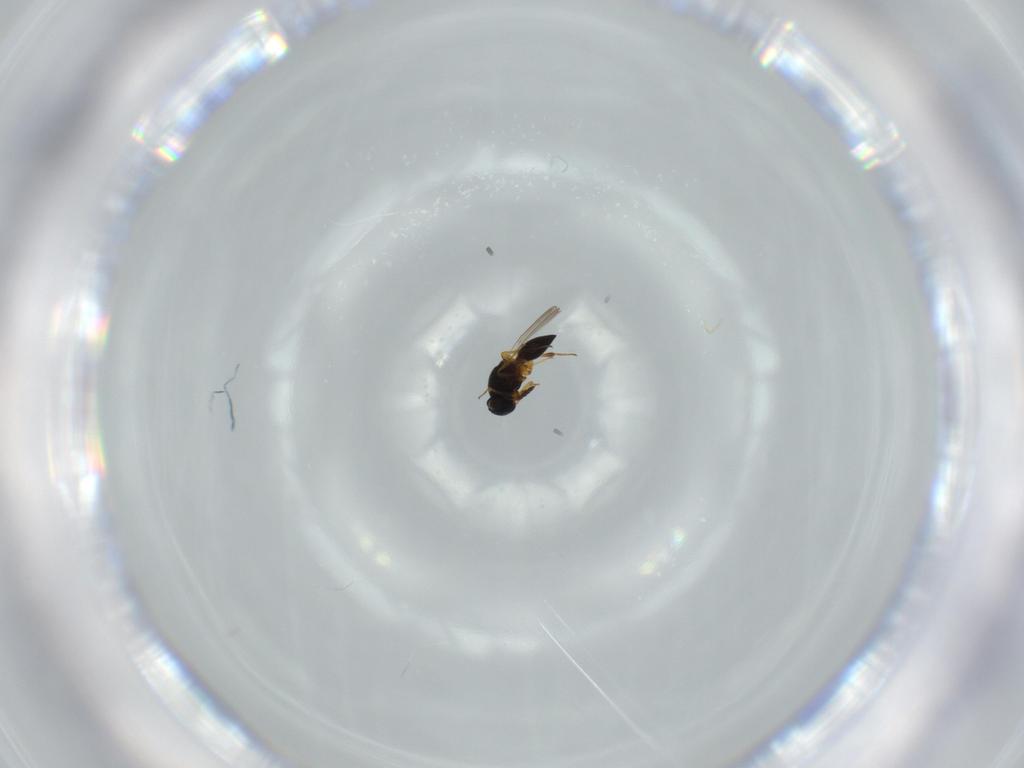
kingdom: Animalia
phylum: Arthropoda
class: Insecta
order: Hymenoptera
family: Platygastridae
